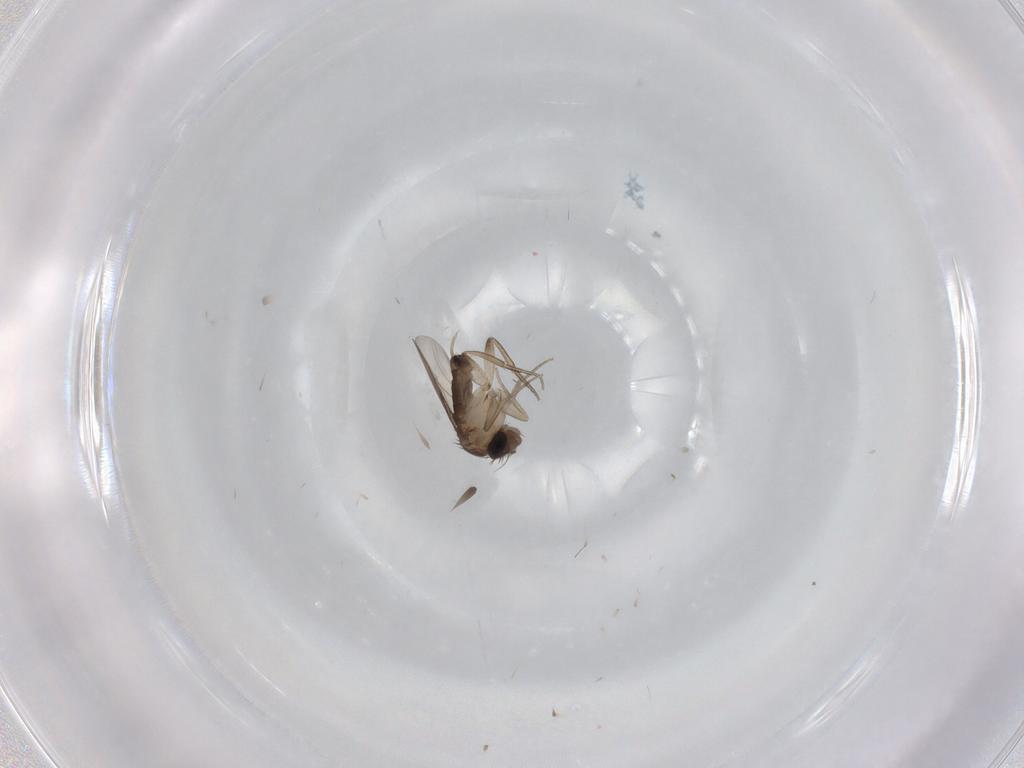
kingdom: Animalia
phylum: Arthropoda
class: Insecta
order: Diptera
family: Phoridae
